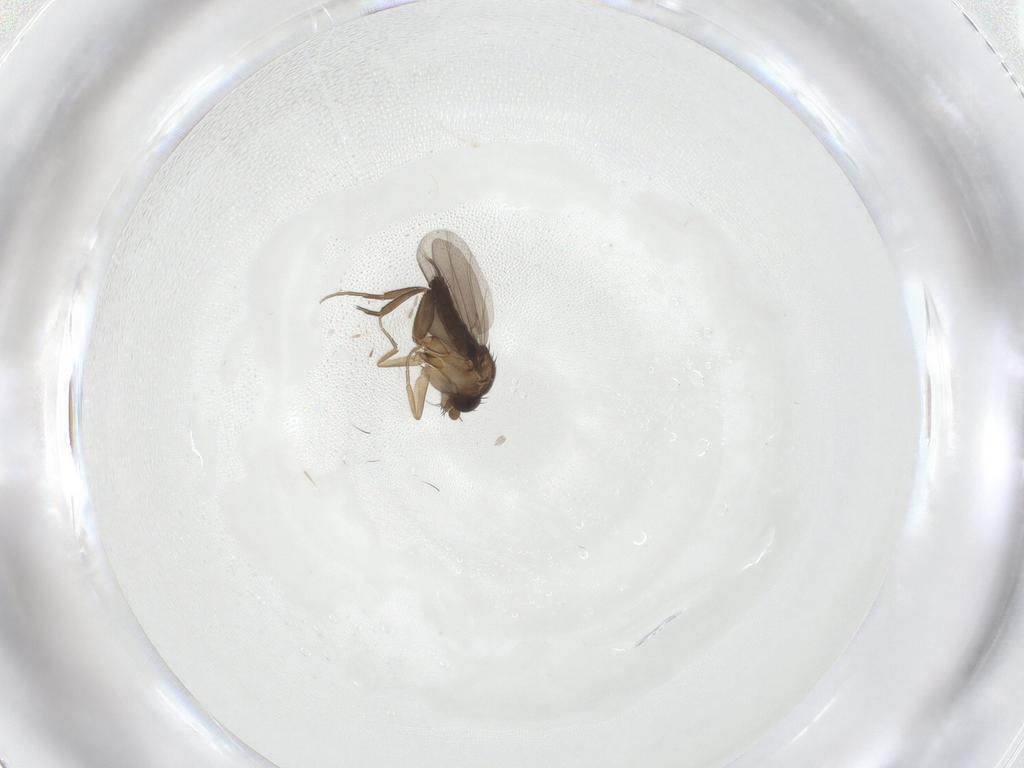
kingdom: Animalia
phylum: Arthropoda
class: Insecta
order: Diptera
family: Phoridae
